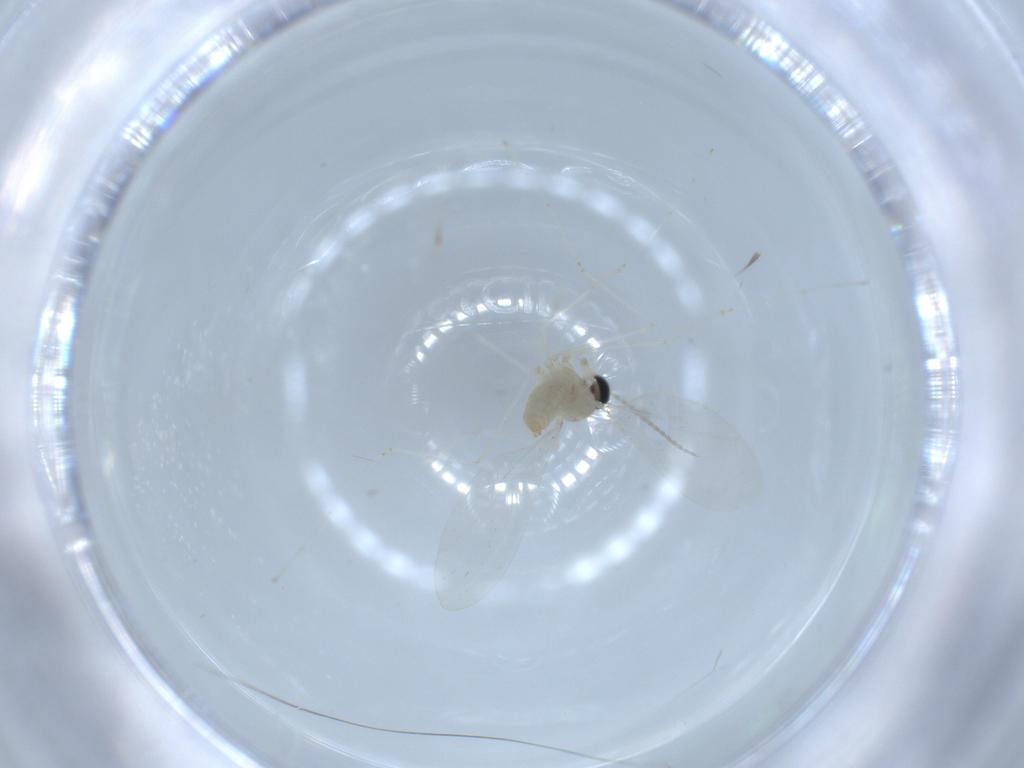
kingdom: Animalia
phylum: Arthropoda
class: Insecta
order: Diptera
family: Cecidomyiidae
